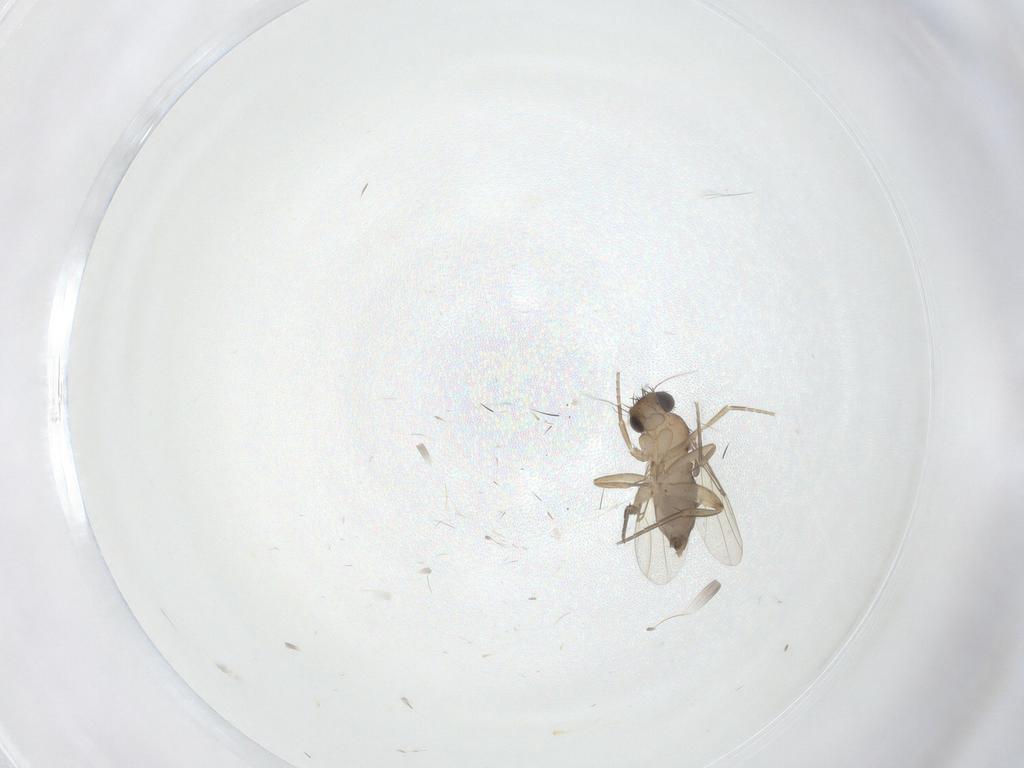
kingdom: Animalia
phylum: Arthropoda
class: Insecta
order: Diptera
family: Phoridae
